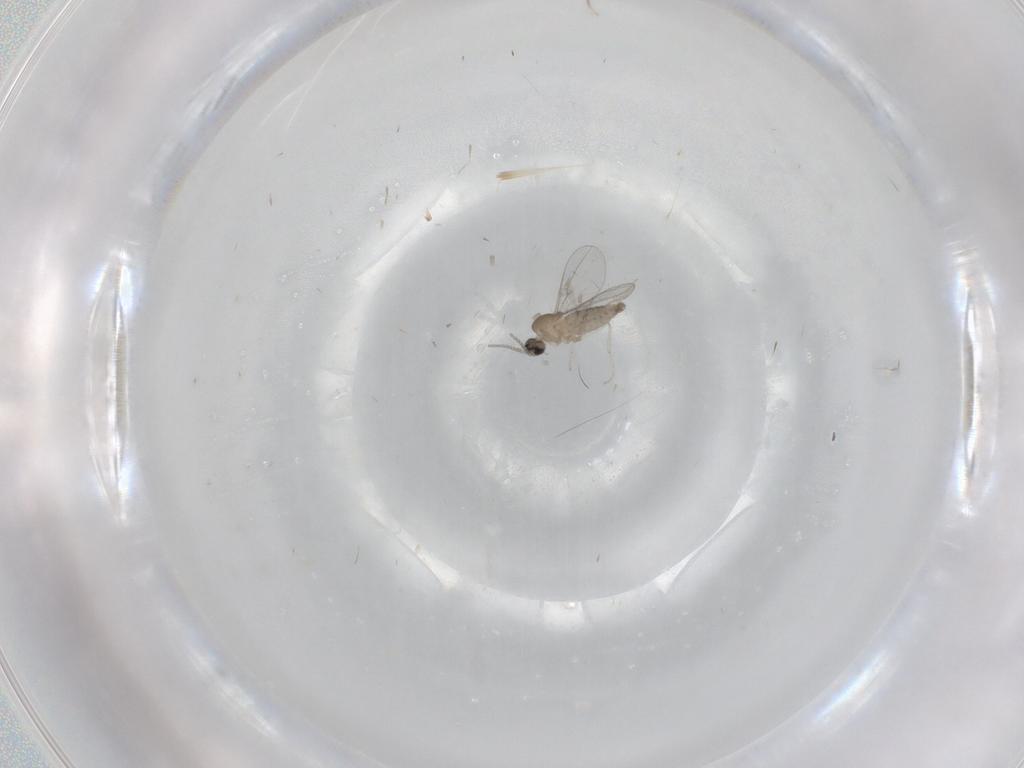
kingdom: Animalia
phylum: Arthropoda
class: Insecta
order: Diptera
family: Cecidomyiidae
